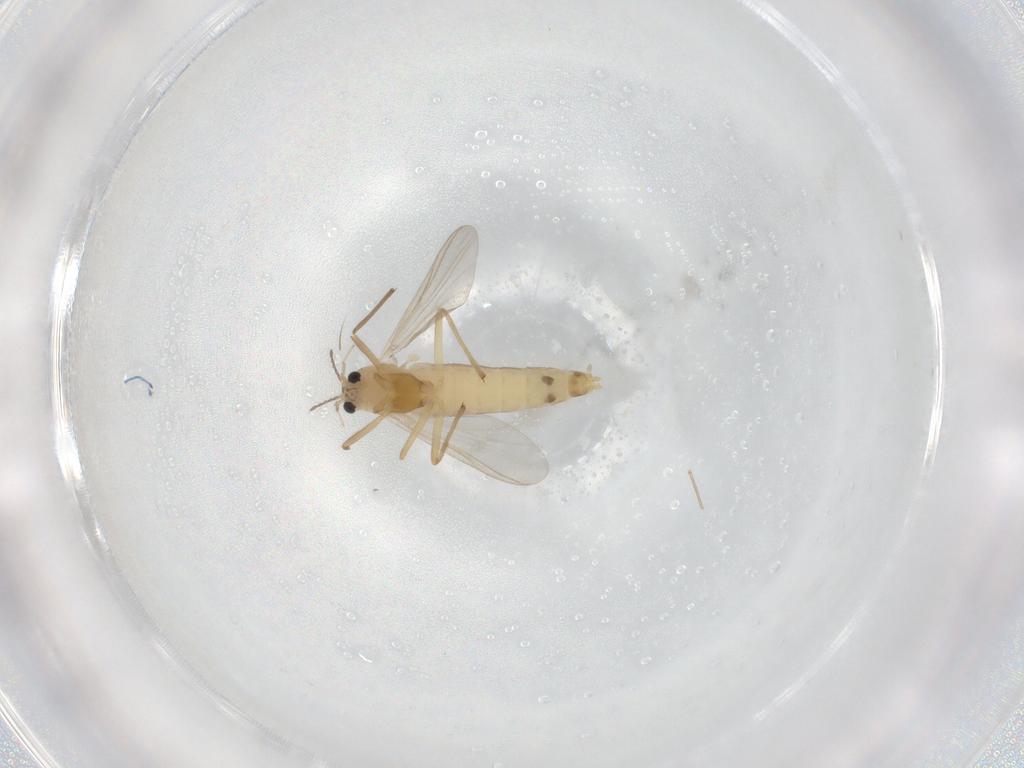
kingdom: Animalia
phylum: Arthropoda
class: Insecta
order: Diptera
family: Chironomidae
